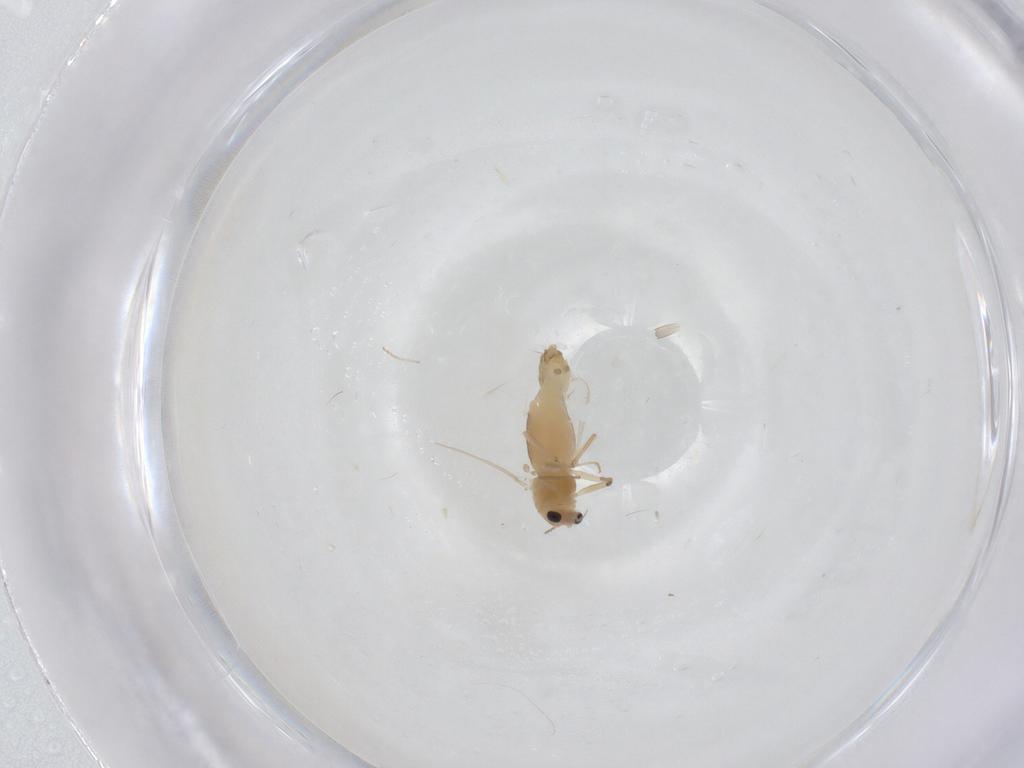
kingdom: Animalia
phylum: Arthropoda
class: Insecta
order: Diptera
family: Chironomidae
